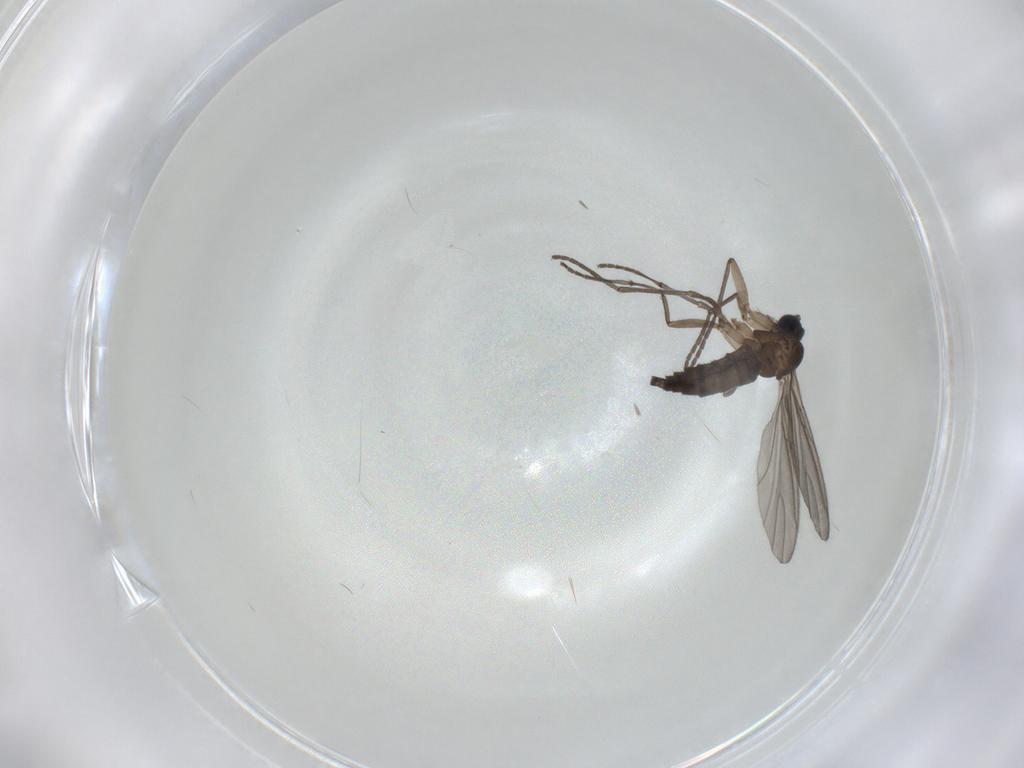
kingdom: Animalia
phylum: Arthropoda
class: Insecta
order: Diptera
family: Sciaridae
